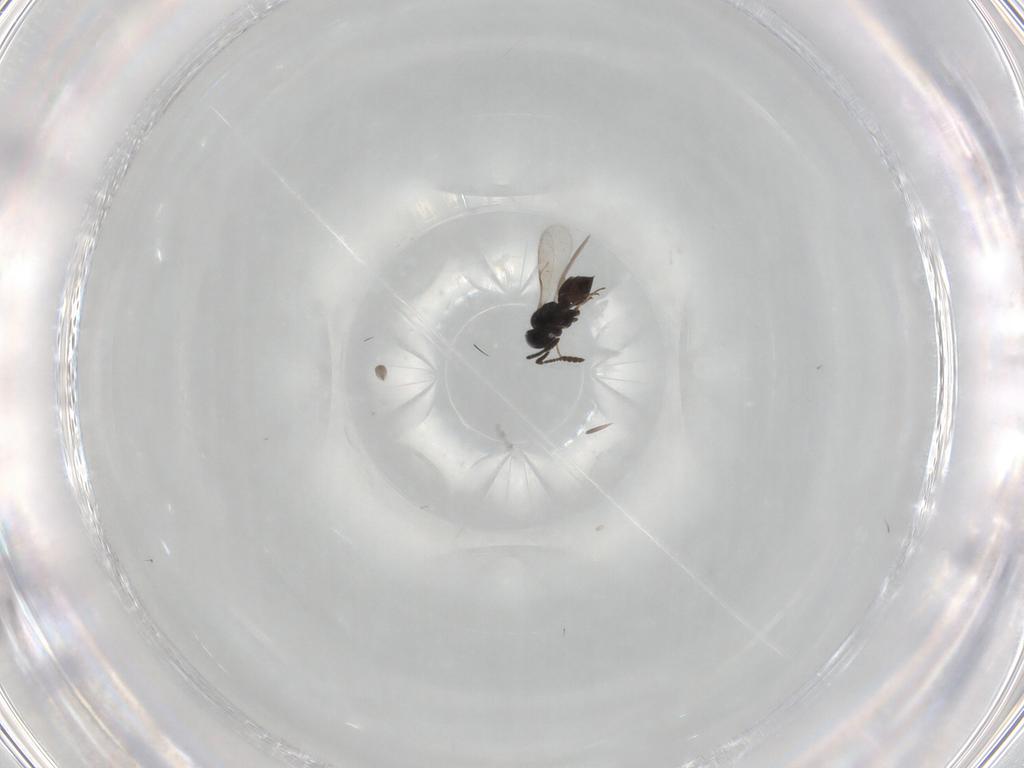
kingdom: Animalia
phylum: Arthropoda
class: Insecta
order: Hymenoptera
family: Scelionidae
